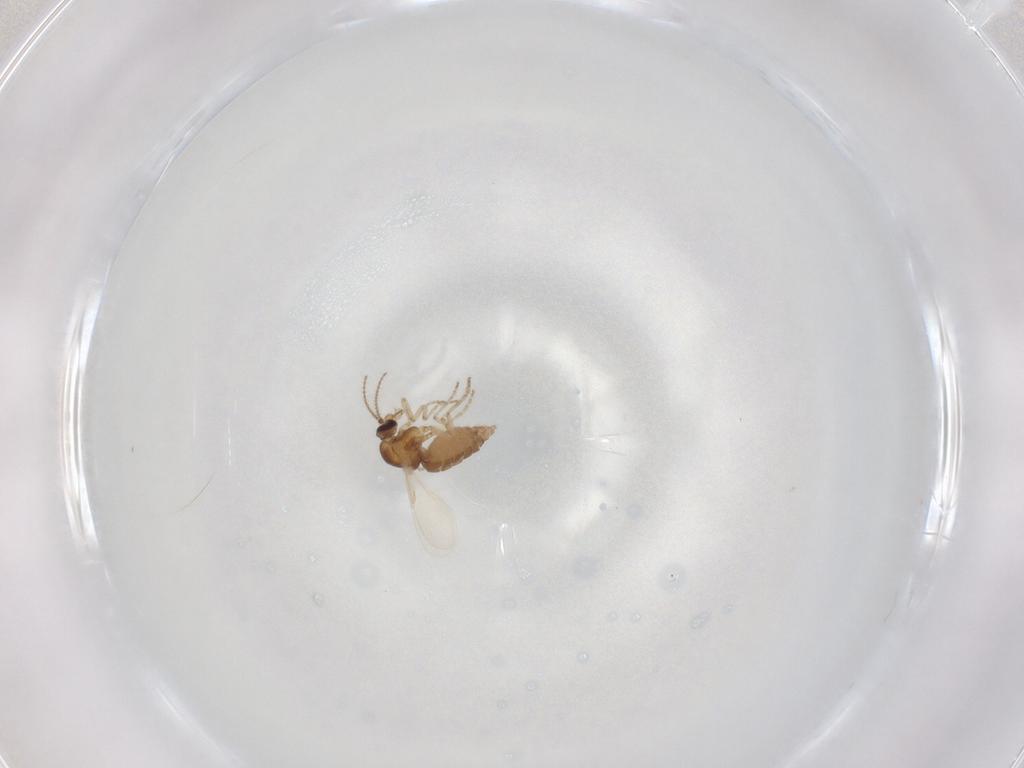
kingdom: Animalia
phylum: Arthropoda
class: Insecta
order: Diptera
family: Ceratopogonidae
